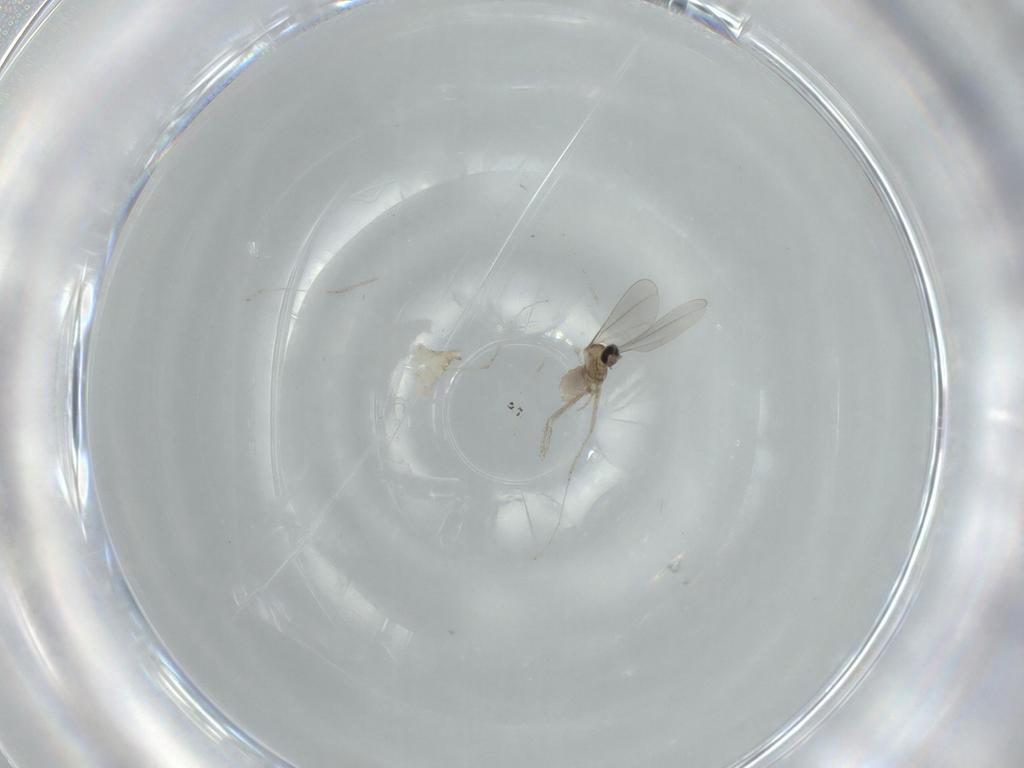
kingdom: Animalia
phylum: Arthropoda
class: Insecta
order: Diptera
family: Cecidomyiidae
